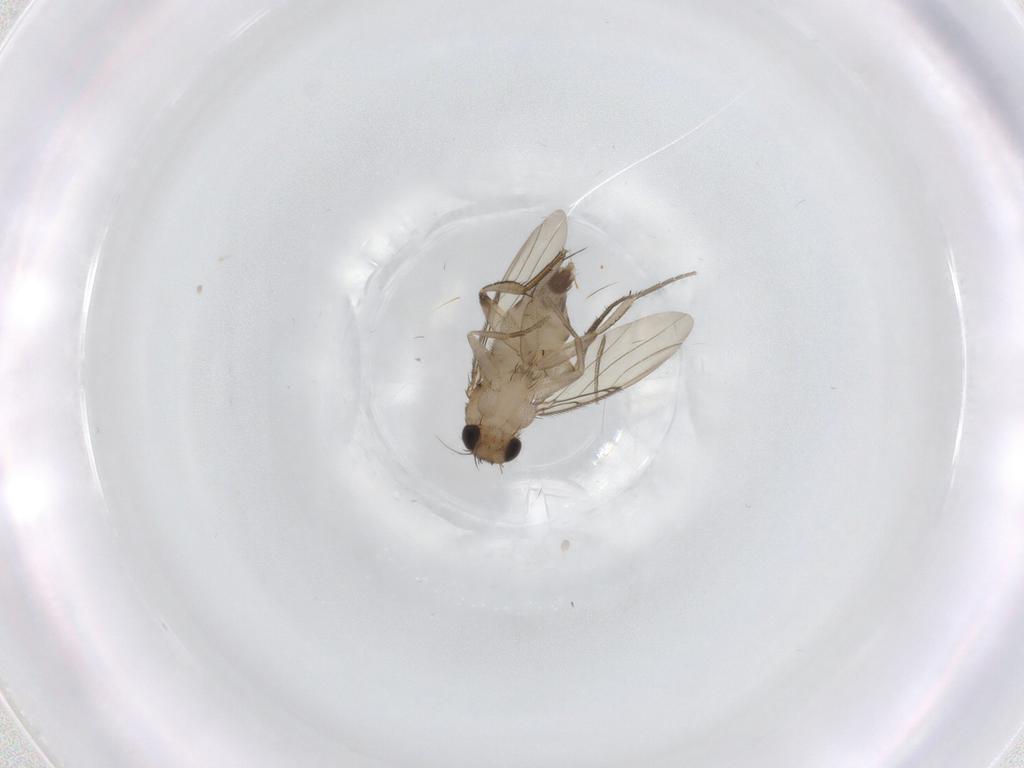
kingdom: Animalia
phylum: Arthropoda
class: Insecta
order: Diptera
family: Phoridae
